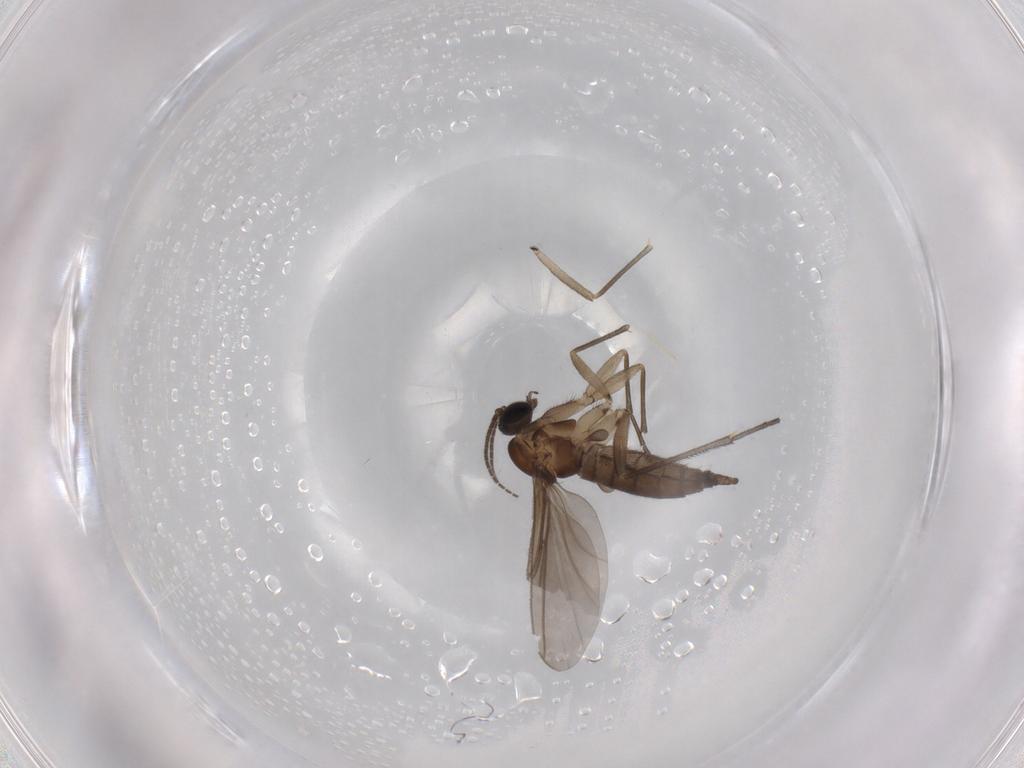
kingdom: Animalia
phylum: Arthropoda
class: Insecta
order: Diptera
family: Sciaridae
